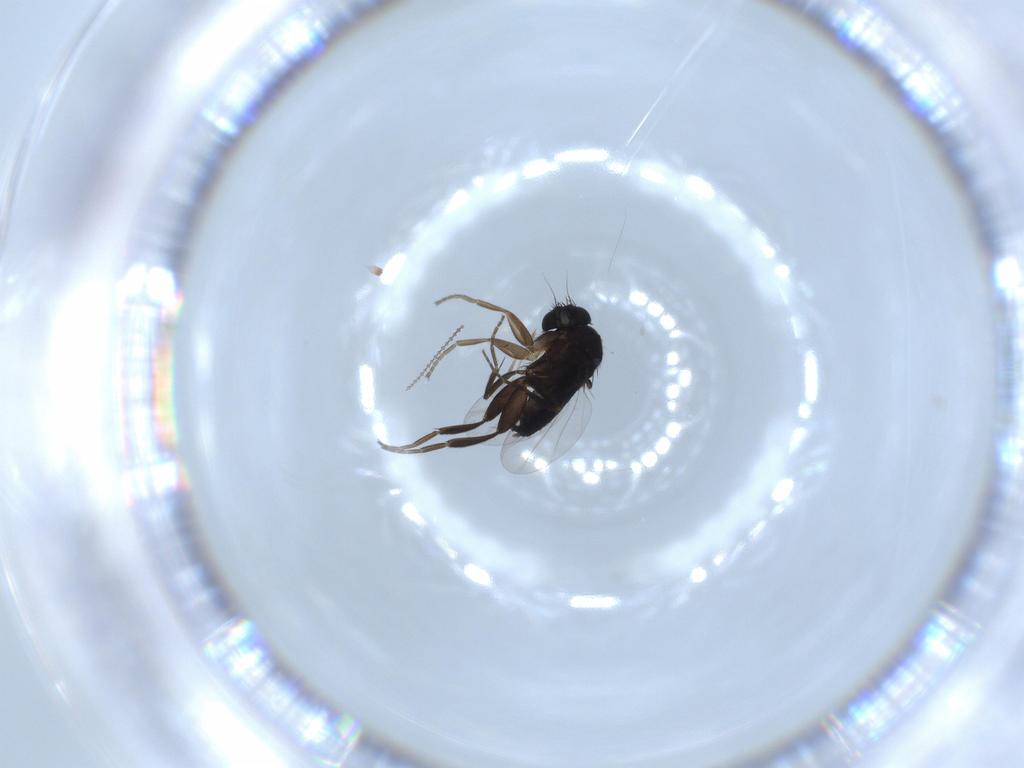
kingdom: Animalia
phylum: Arthropoda
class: Insecta
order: Diptera
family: Phoridae
